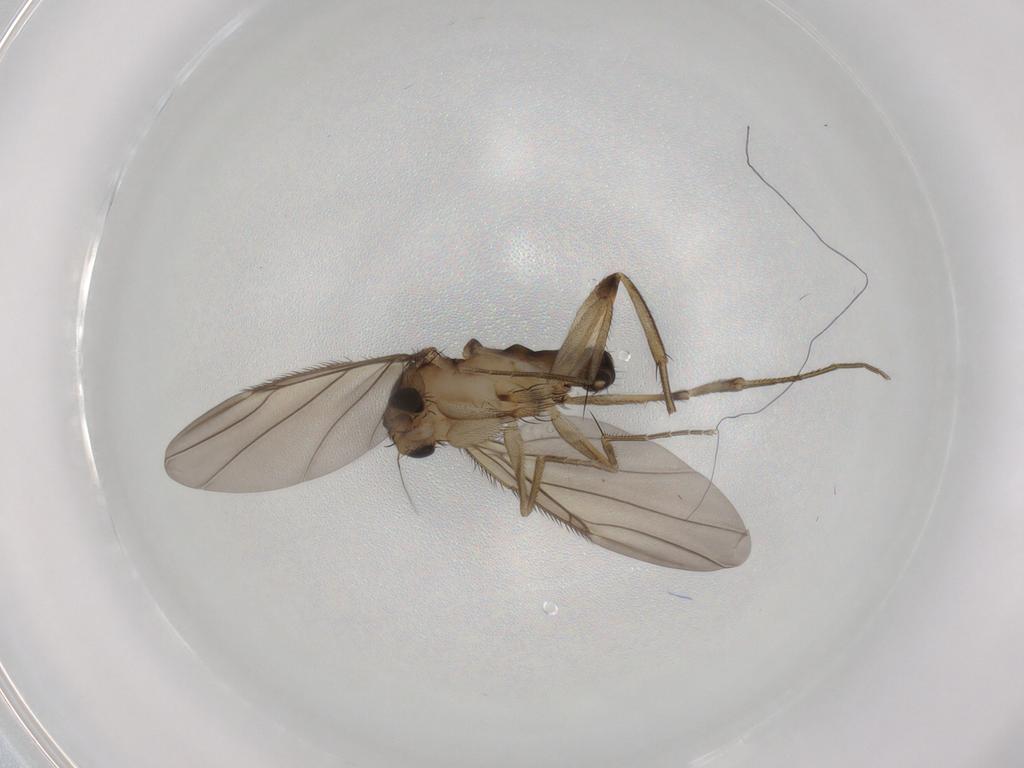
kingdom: Animalia
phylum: Arthropoda
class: Insecta
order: Diptera
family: Phoridae
